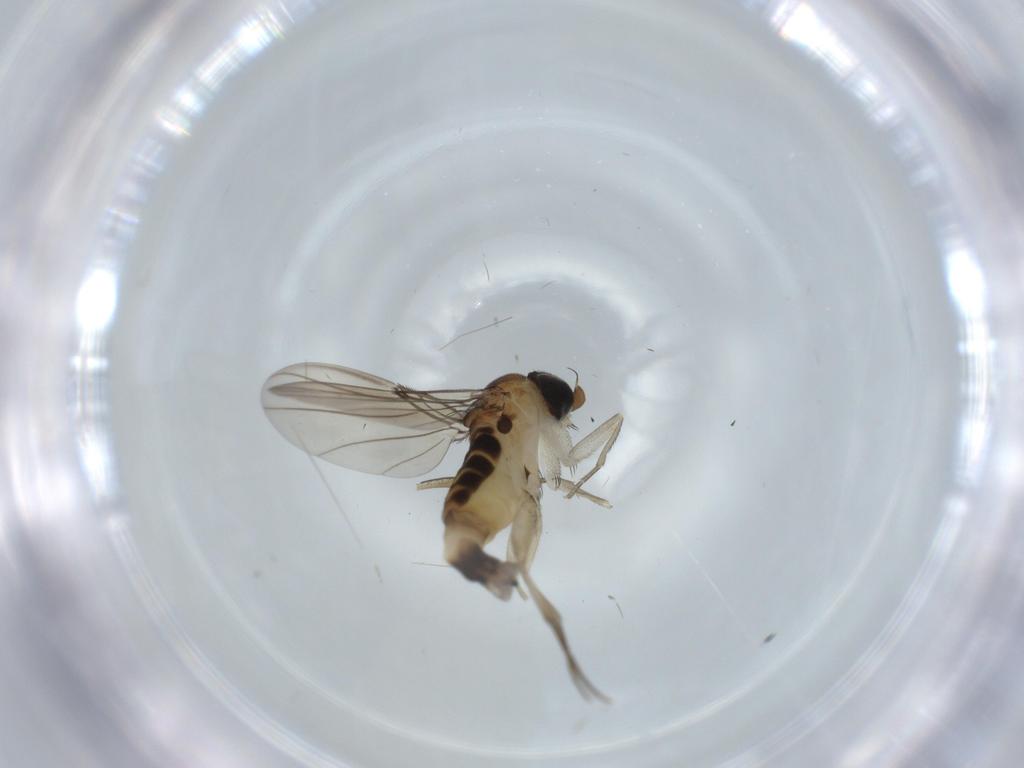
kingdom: Animalia
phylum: Arthropoda
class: Insecta
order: Diptera
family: Phoridae
